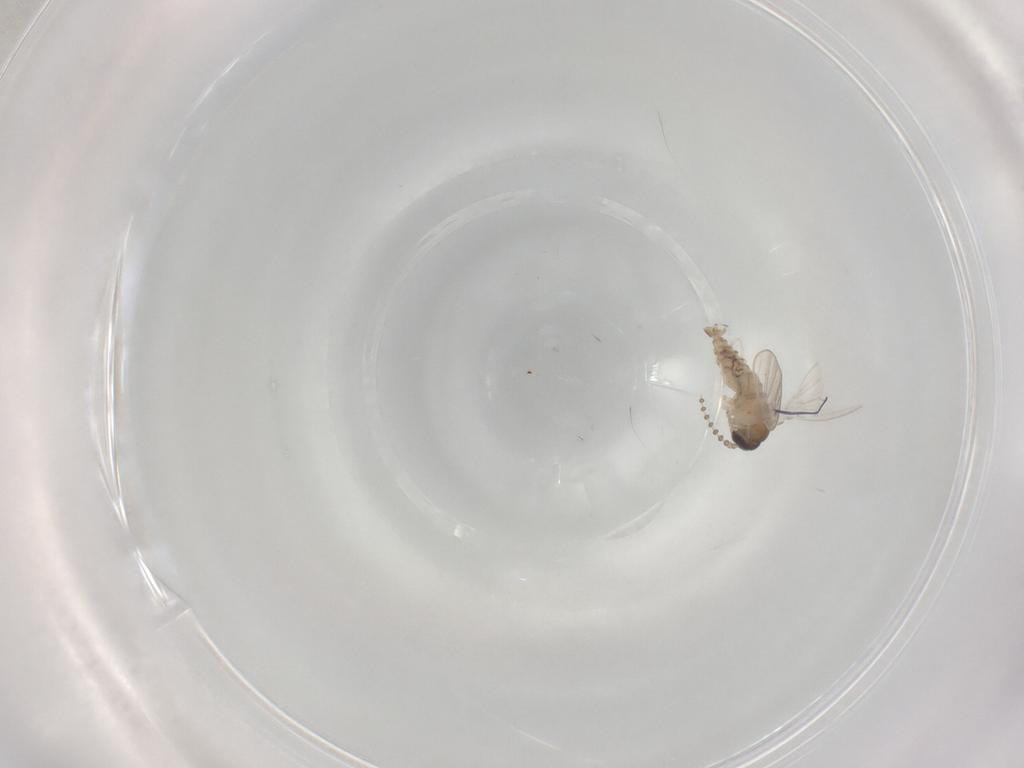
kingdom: Animalia
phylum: Arthropoda
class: Insecta
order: Diptera
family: Psychodidae
